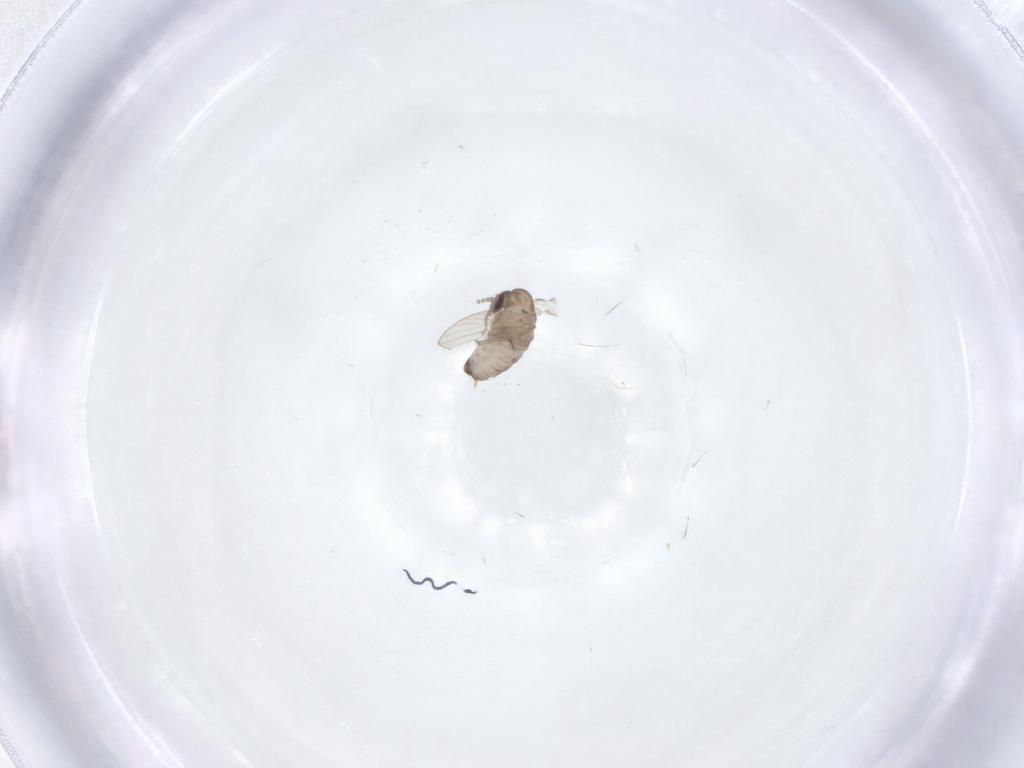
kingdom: Animalia
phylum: Arthropoda
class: Insecta
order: Diptera
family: Psychodidae
